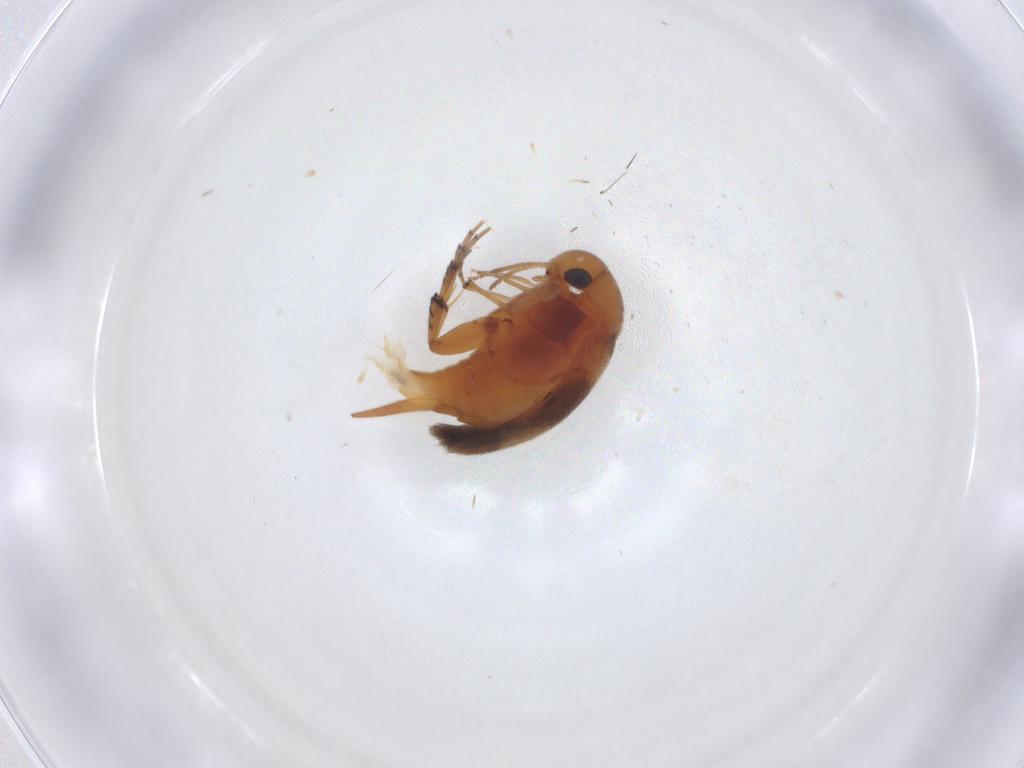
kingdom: Animalia
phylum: Arthropoda
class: Insecta
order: Coleoptera
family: Mordellidae
